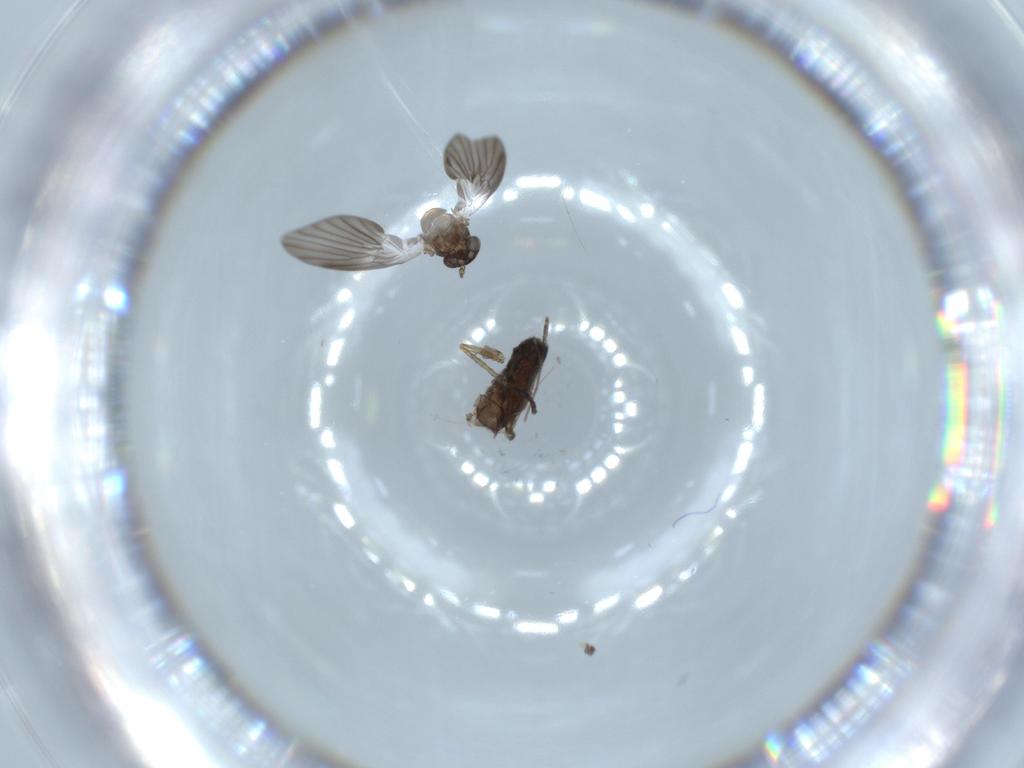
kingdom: Animalia
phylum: Arthropoda
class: Insecta
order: Diptera
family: Psychodidae
